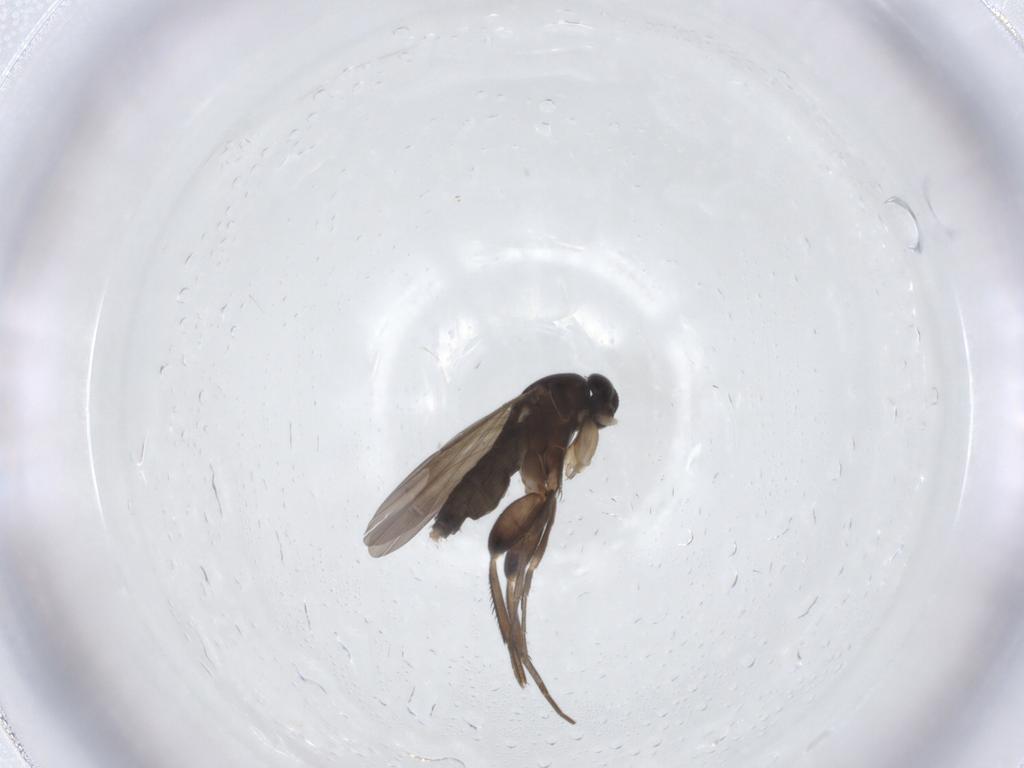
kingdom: Animalia
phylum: Arthropoda
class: Insecta
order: Diptera
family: Phoridae
